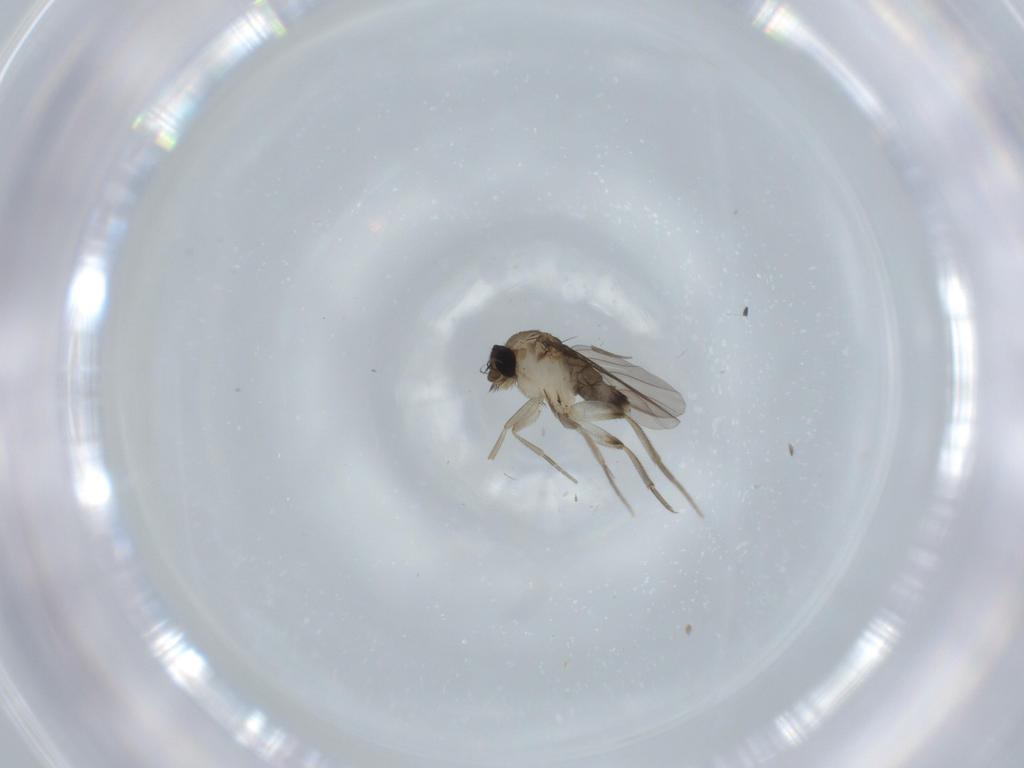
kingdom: Animalia
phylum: Arthropoda
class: Insecta
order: Diptera
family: Phoridae
